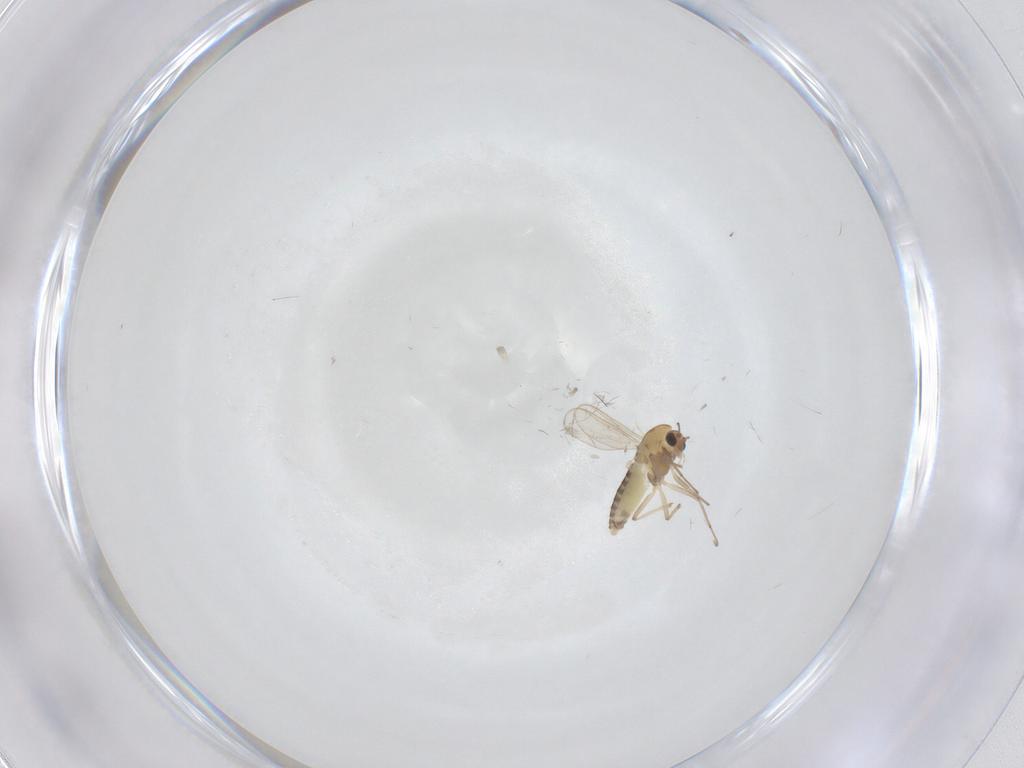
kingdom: Animalia
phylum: Arthropoda
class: Insecta
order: Diptera
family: Chironomidae
